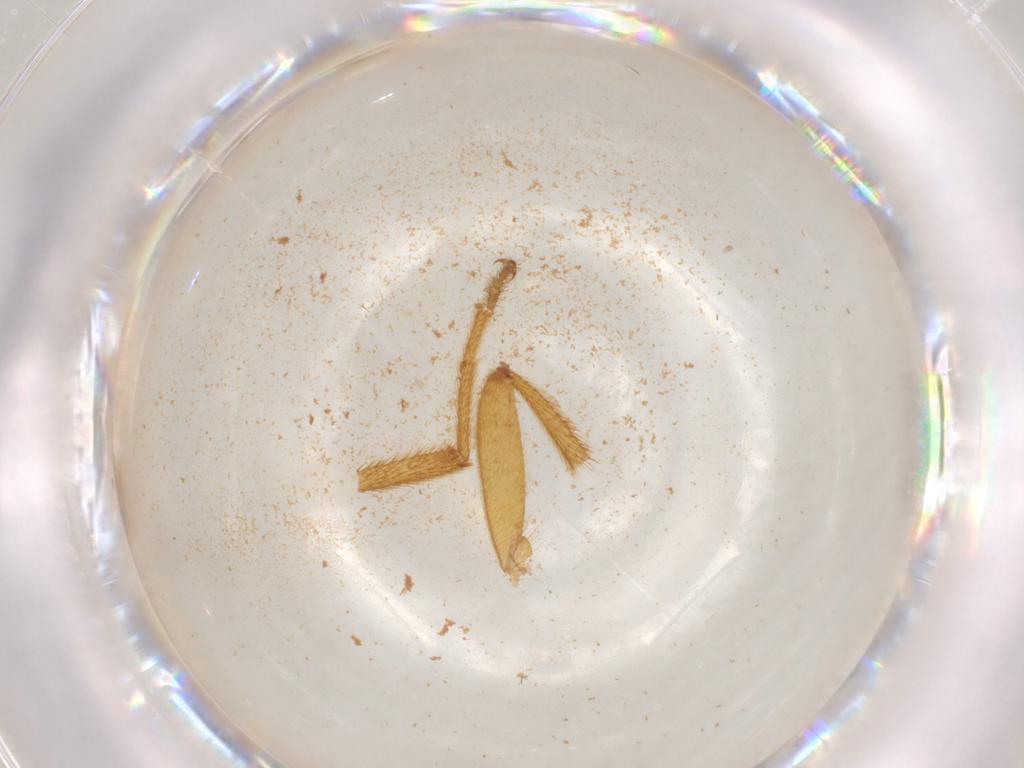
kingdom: Animalia
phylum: Arthropoda
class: Insecta
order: Coleoptera
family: Phengodidae
